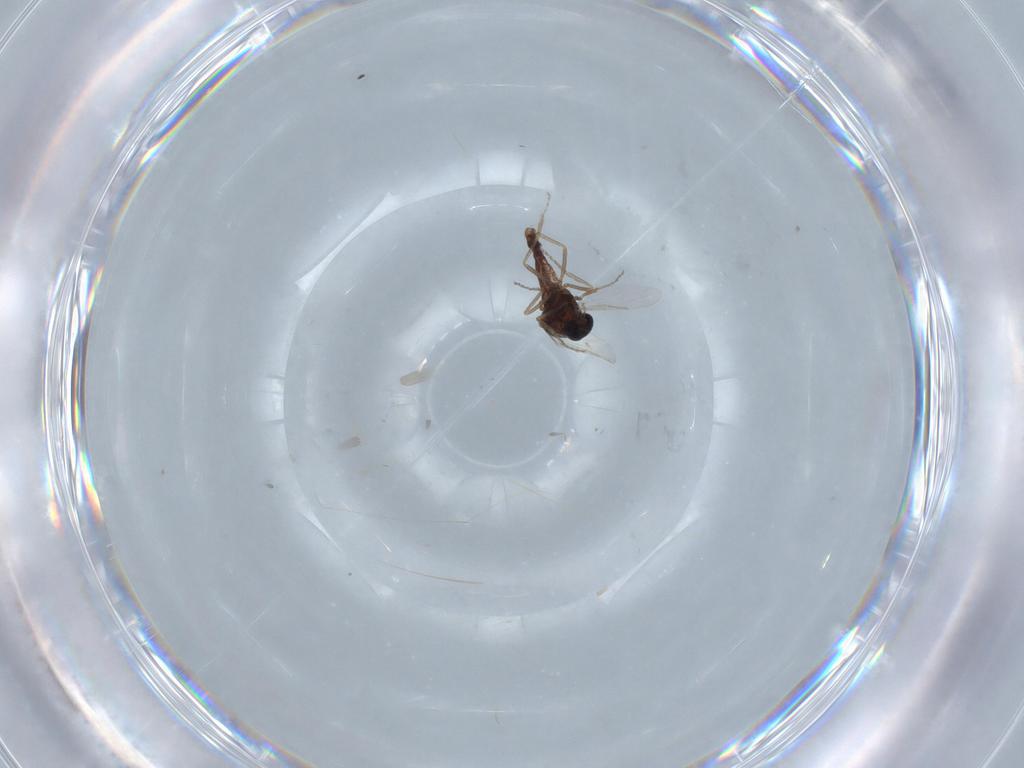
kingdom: Animalia
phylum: Arthropoda
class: Insecta
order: Diptera
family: Ceratopogonidae
